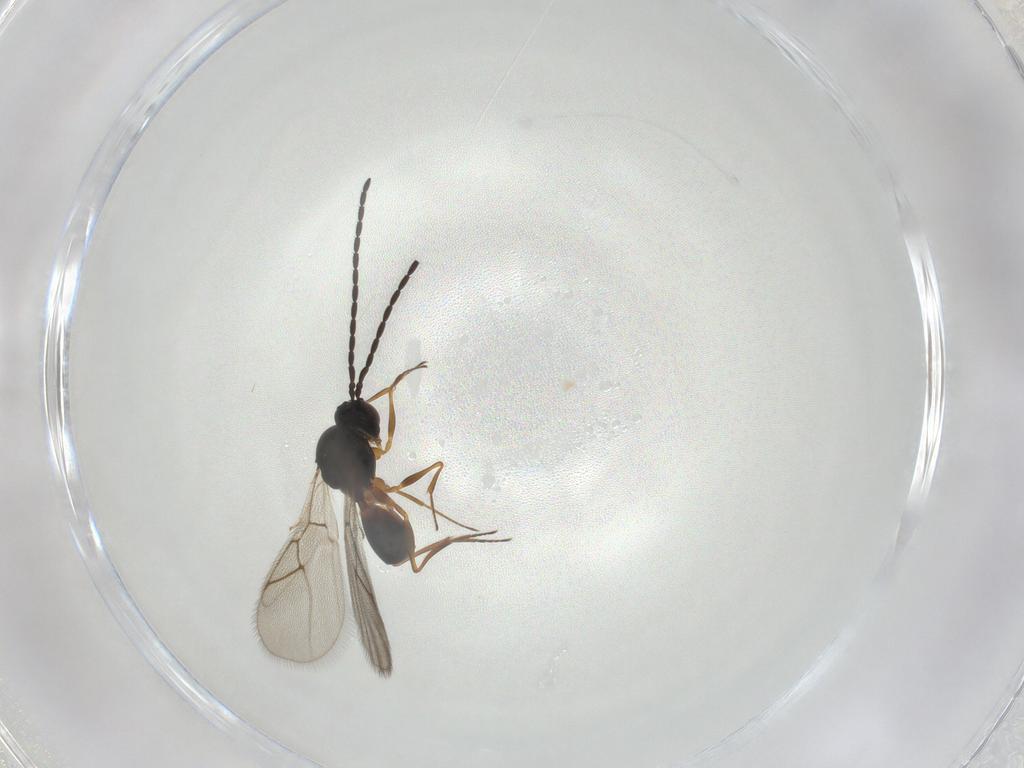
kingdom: Animalia
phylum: Arthropoda
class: Insecta
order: Hymenoptera
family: Figitidae
